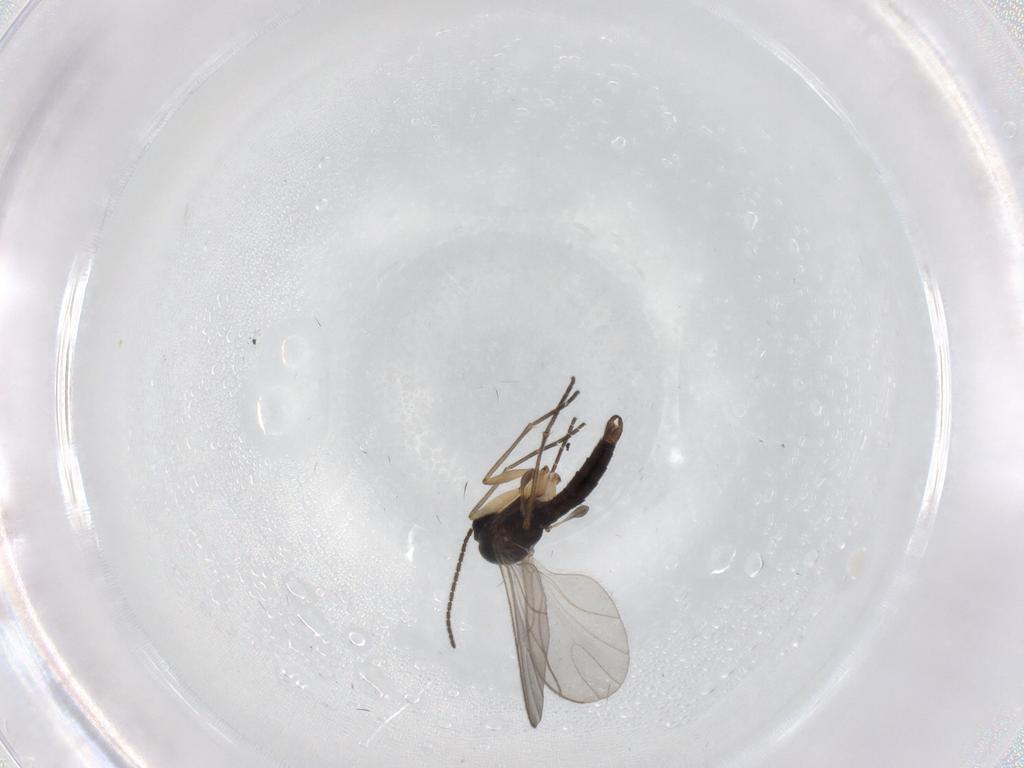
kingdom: Animalia
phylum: Arthropoda
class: Insecta
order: Diptera
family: Sciaridae
